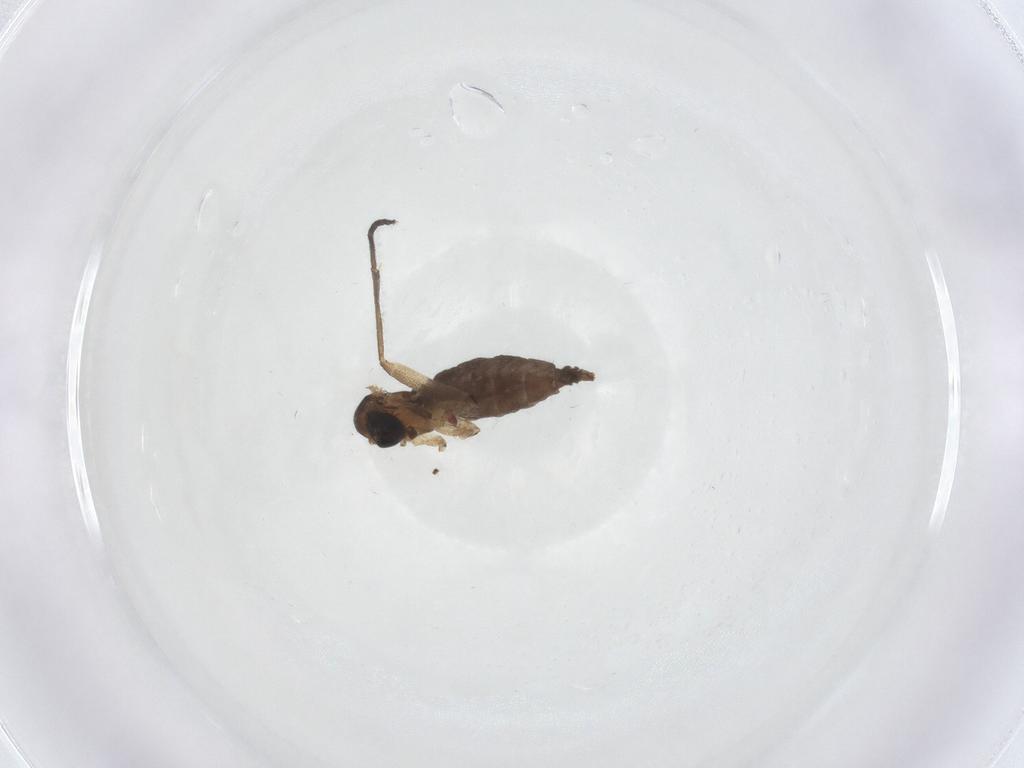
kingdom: Animalia
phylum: Arthropoda
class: Insecta
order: Diptera
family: Sciaridae
